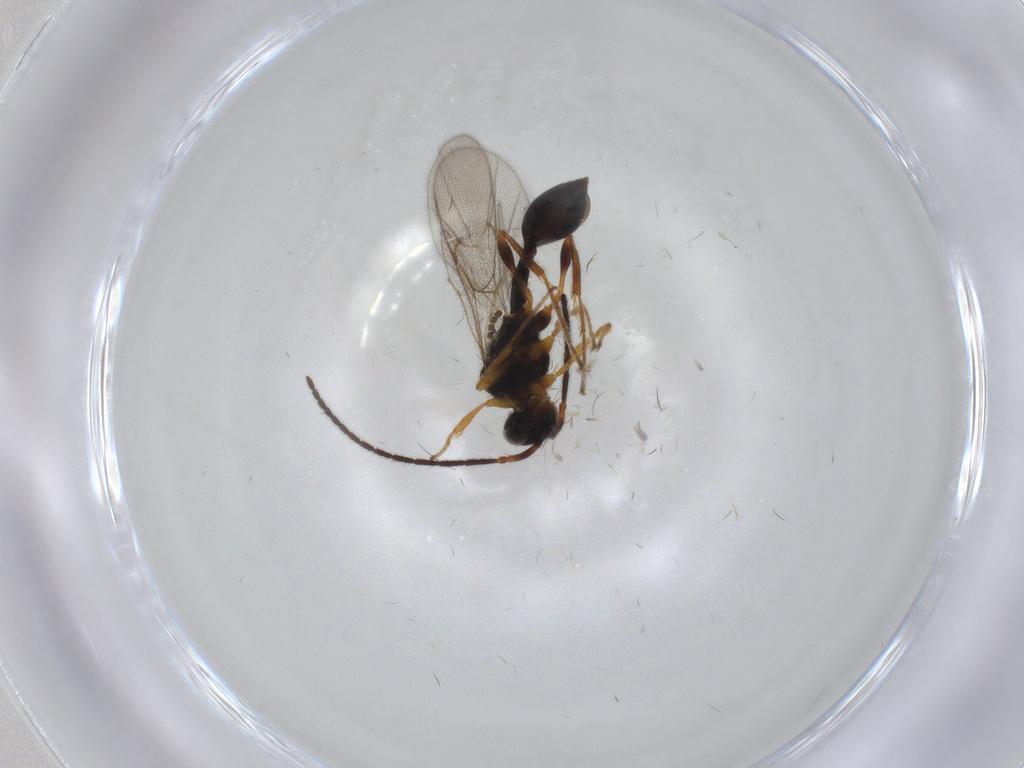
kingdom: Animalia
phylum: Arthropoda
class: Insecta
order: Hymenoptera
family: Diapriidae
